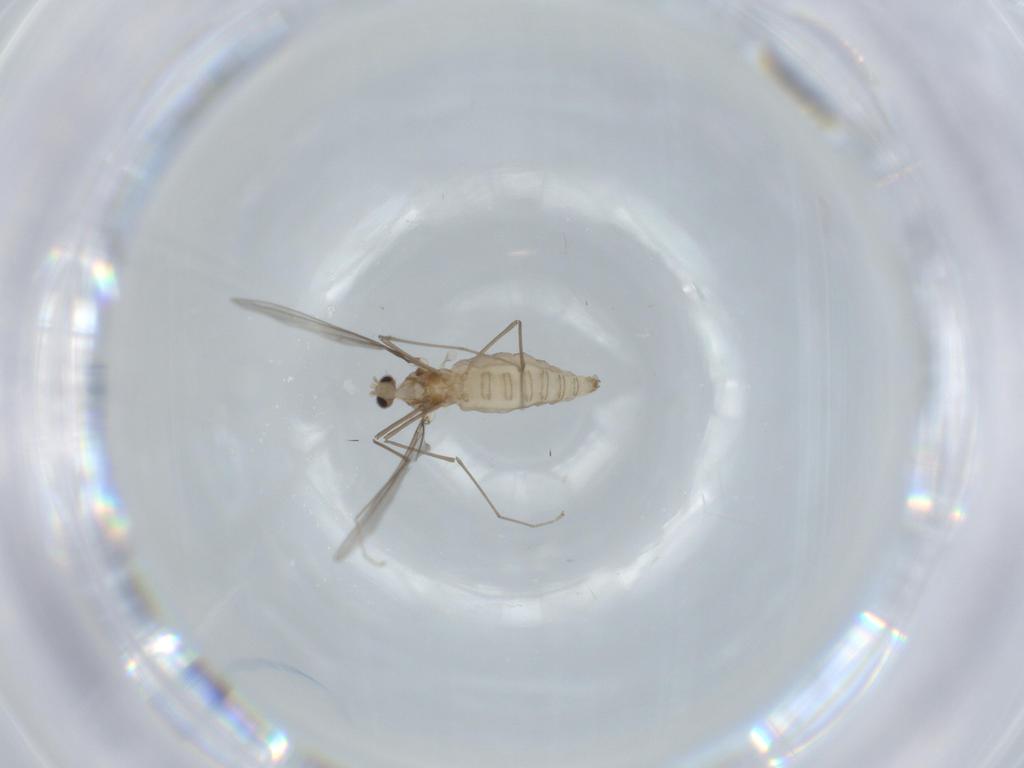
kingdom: Animalia
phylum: Arthropoda
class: Insecta
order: Diptera
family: Cecidomyiidae
